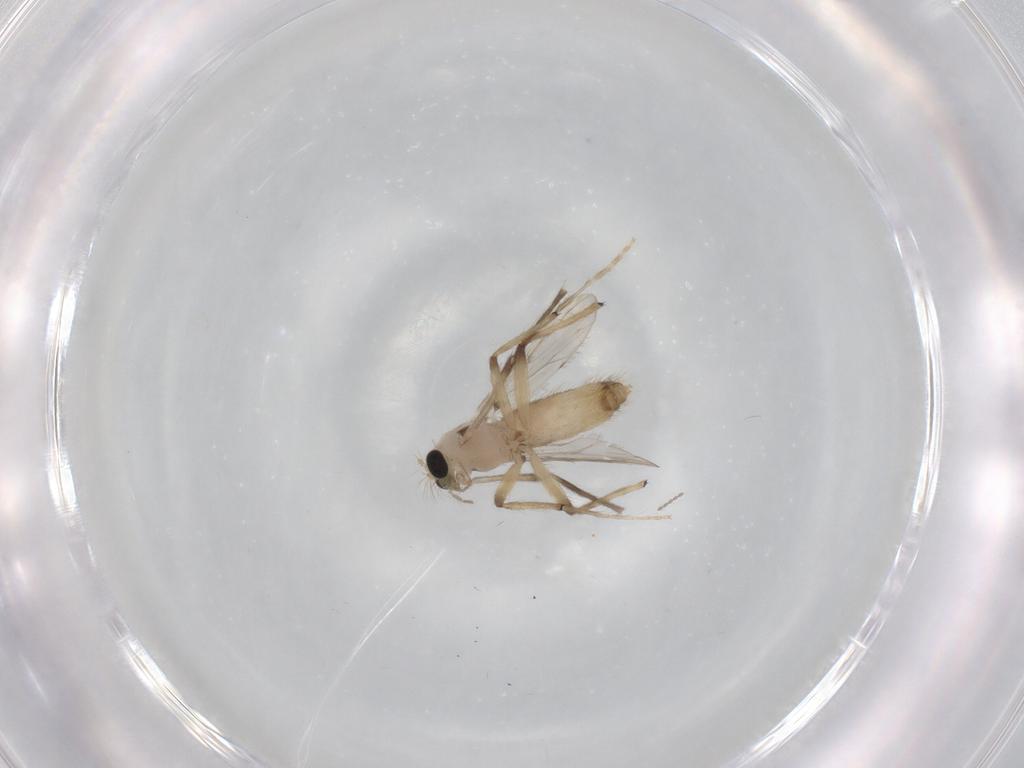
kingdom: Animalia
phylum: Arthropoda
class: Insecta
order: Diptera
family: Chironomidae
